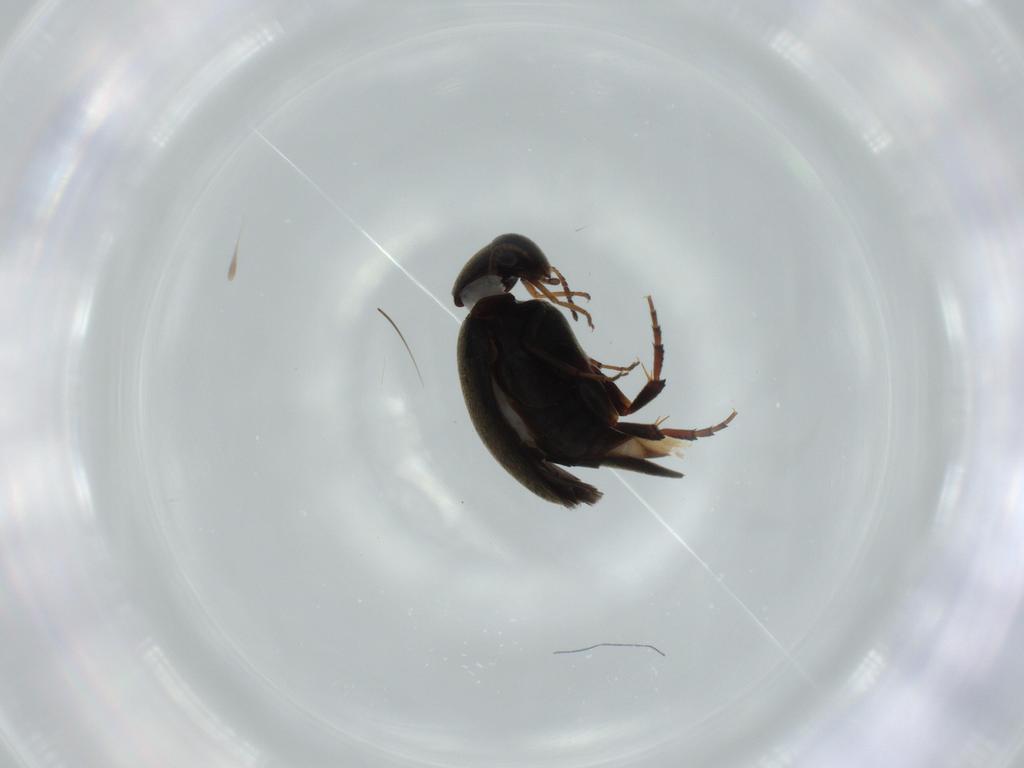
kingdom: Animalia
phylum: Arthropoda
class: Insecta
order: Coleoptera
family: Mordellidae
